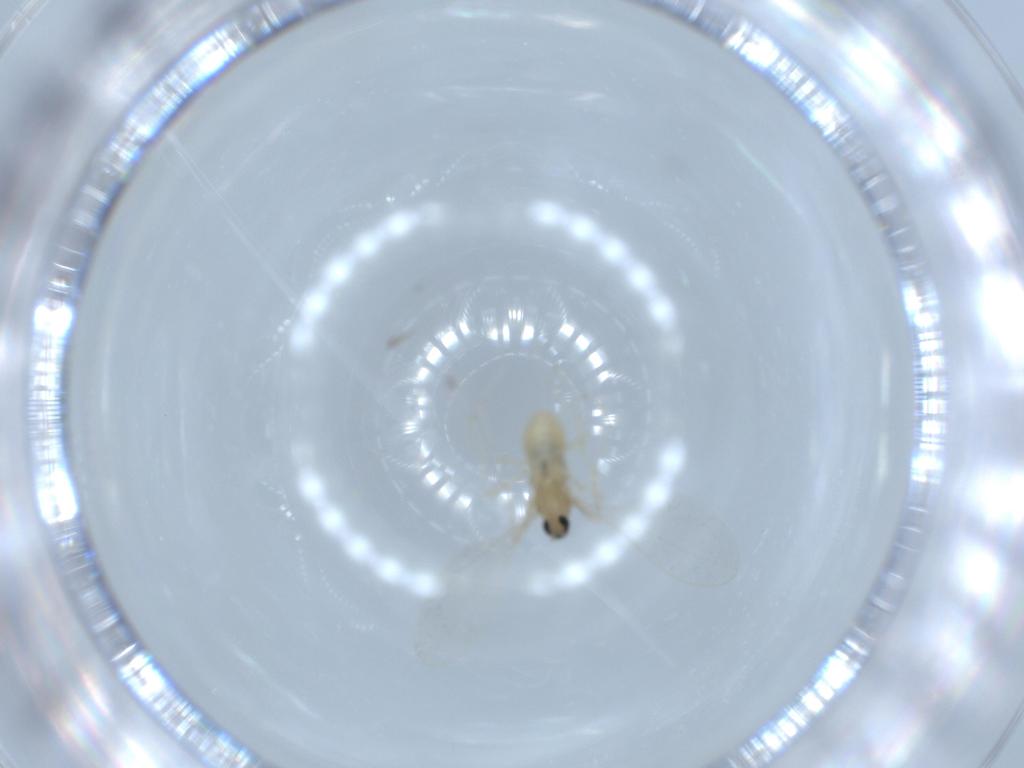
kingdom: Animalia
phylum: Arthropoda
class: Insecta
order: Diptera
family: Cecidomyiidae
